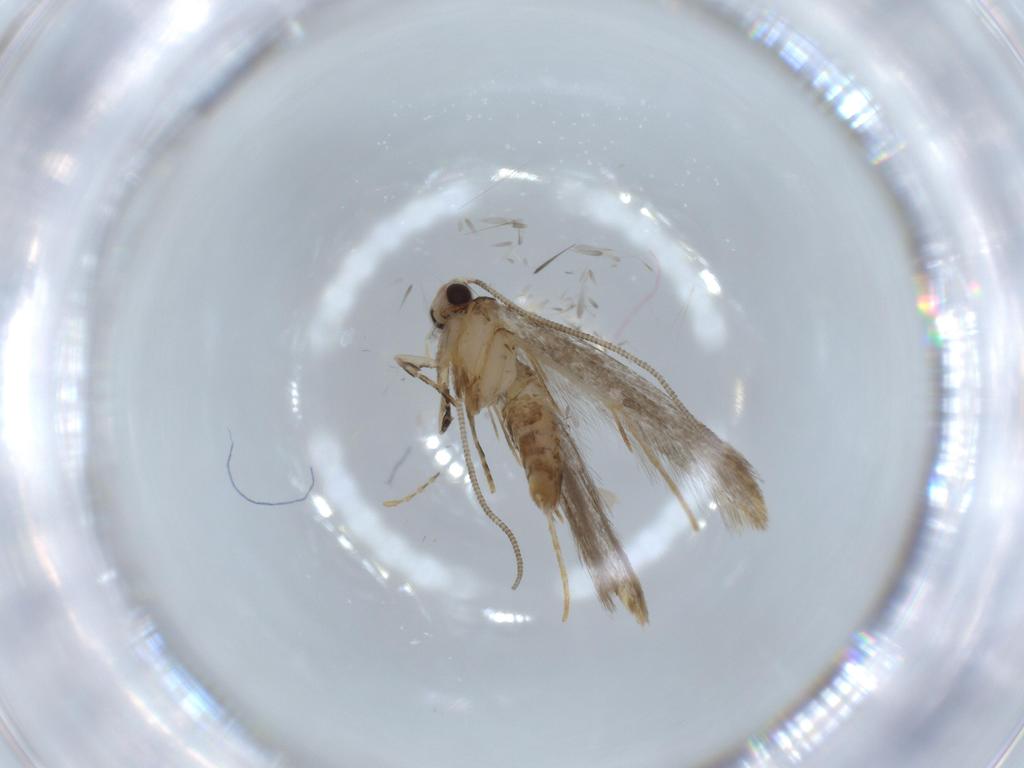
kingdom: Animalia
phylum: Arthropoda
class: Insecta
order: Lepidoptera
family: Tineidae
